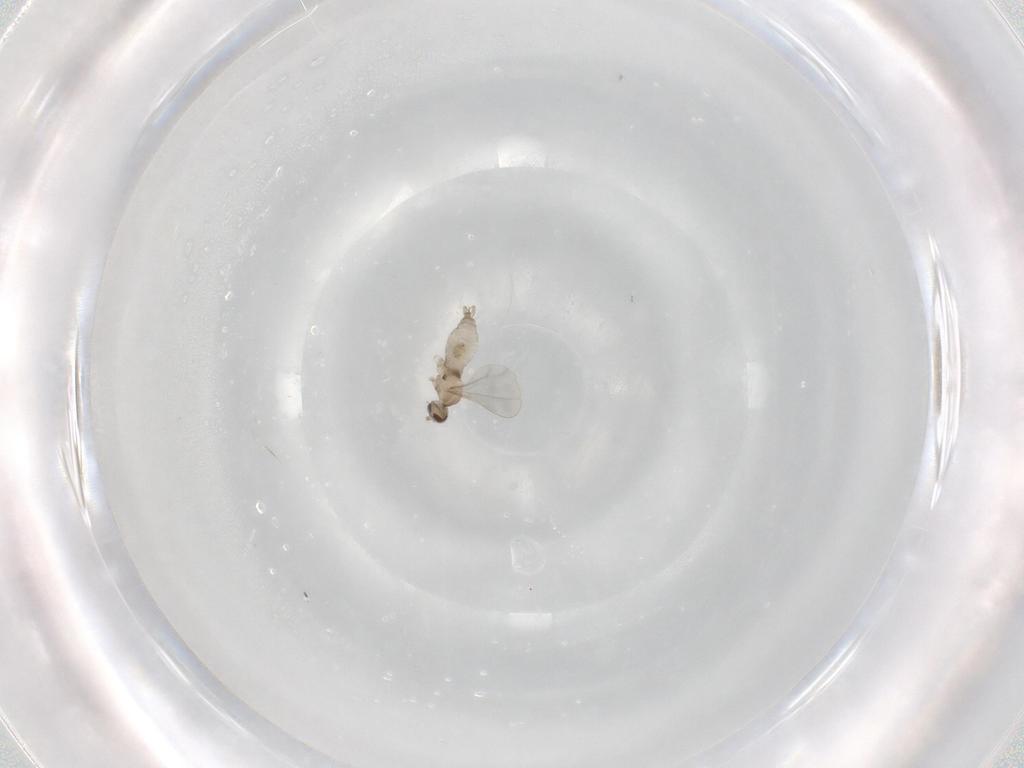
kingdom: Animalia
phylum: Arthropoda
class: Insecta
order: Diptera
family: Cecidomyiidae
